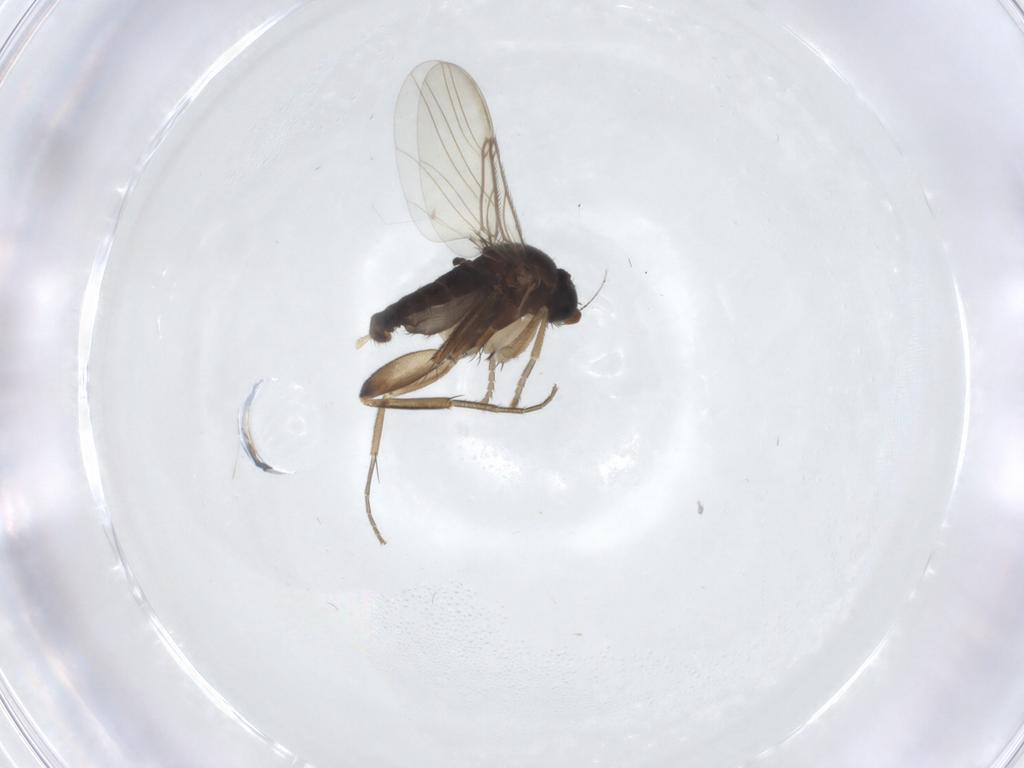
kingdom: Animalia
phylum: Arthropoda
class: Insecta
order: Diptera
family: Phoridae
